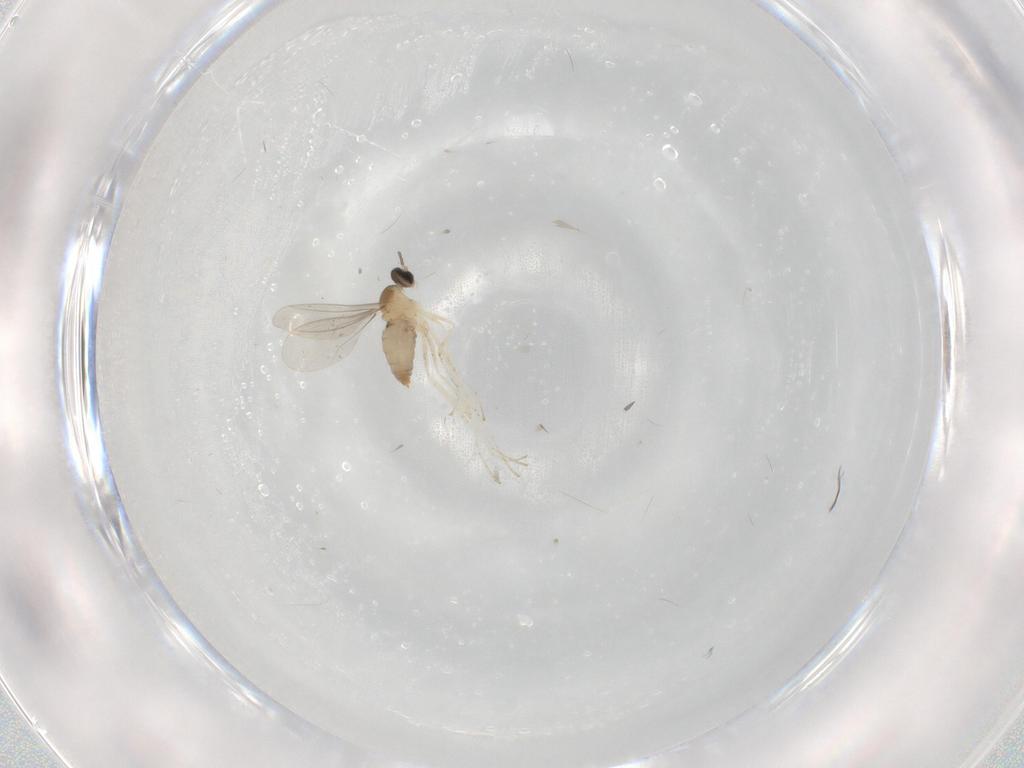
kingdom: Animalia
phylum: Arthropoda
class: Insecta
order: Diptera
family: Cecidomyiidae
